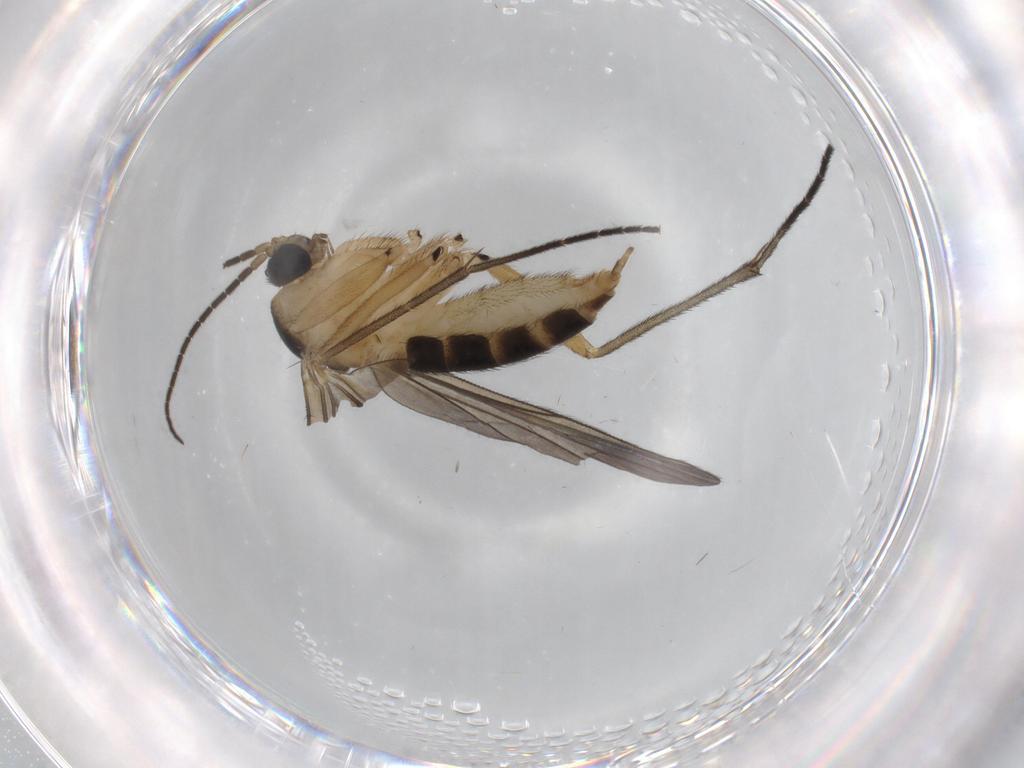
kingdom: Animalia
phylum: Arthropoda
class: Insecta
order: Diptera
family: Sciaridae
